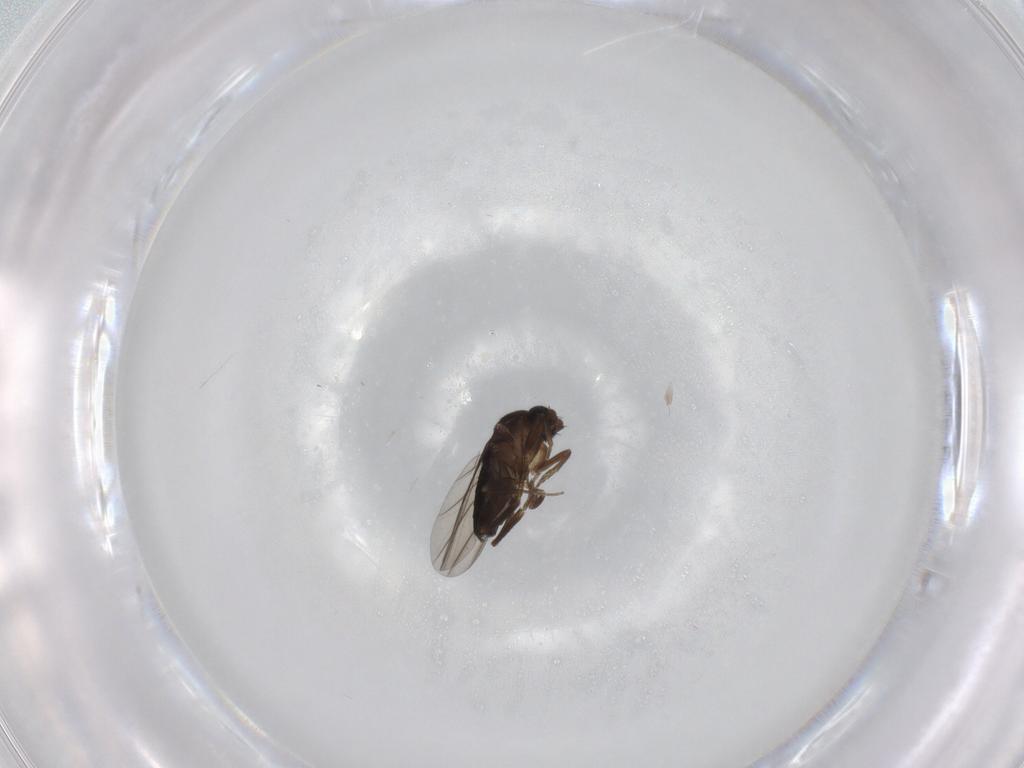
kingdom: Animalia
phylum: Arthropoda
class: Insecta
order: Diptera
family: Phoridae
